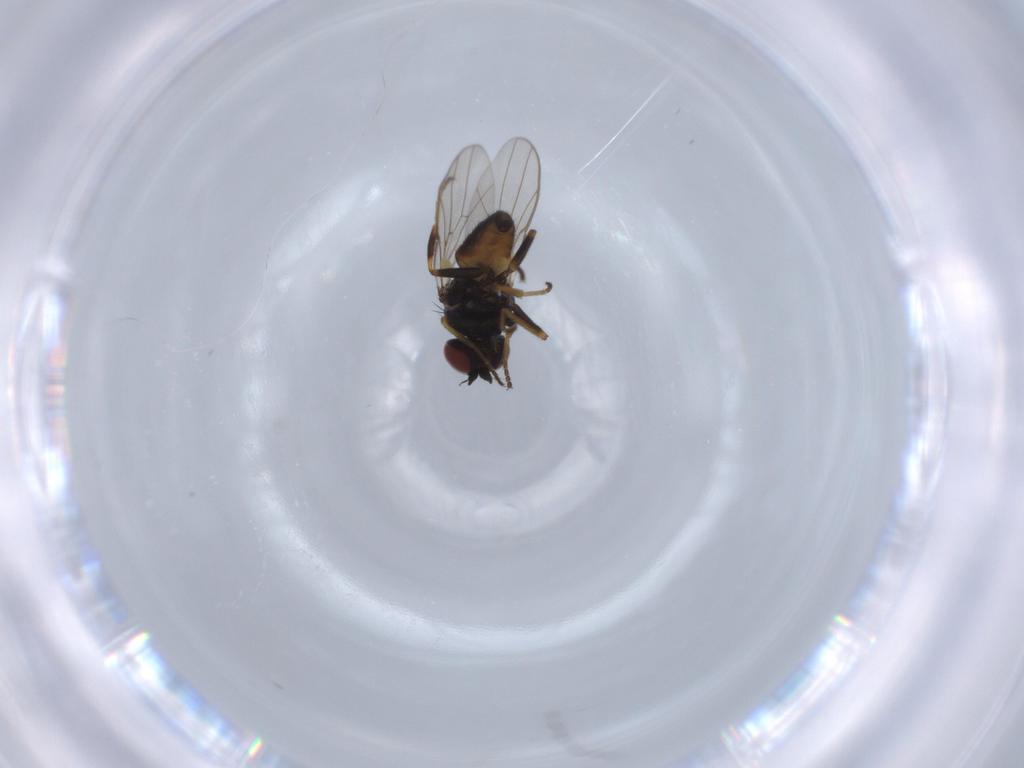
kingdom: Animalia
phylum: Arthropoda
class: Insecta
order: Diptera
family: Chloropidae
